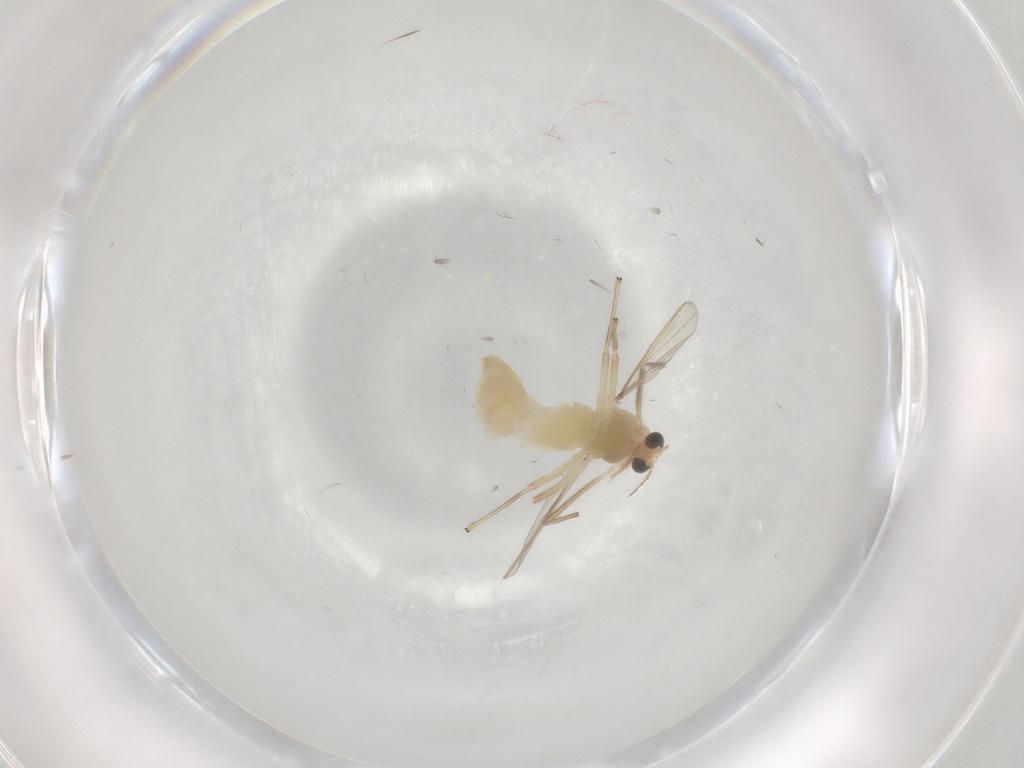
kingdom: Animalia
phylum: Arthropoda
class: Insecta
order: Diptera
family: Chironomidae
